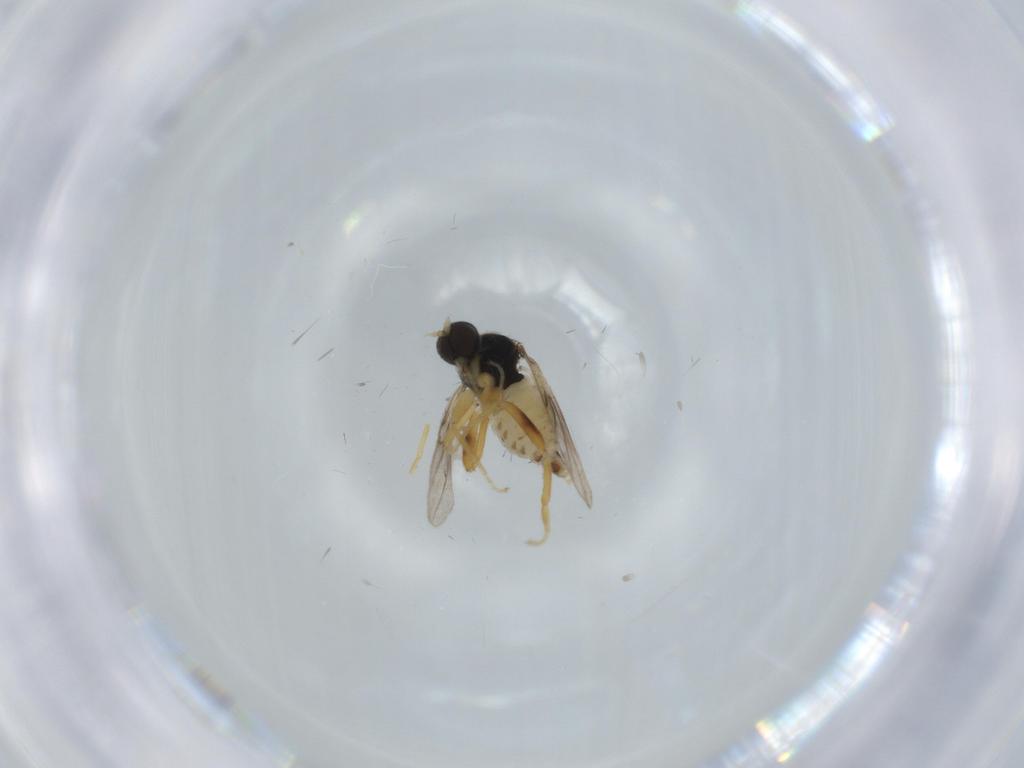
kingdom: Animalia
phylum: Arthropoda
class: Insecta
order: Diptera
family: Hybotidae
